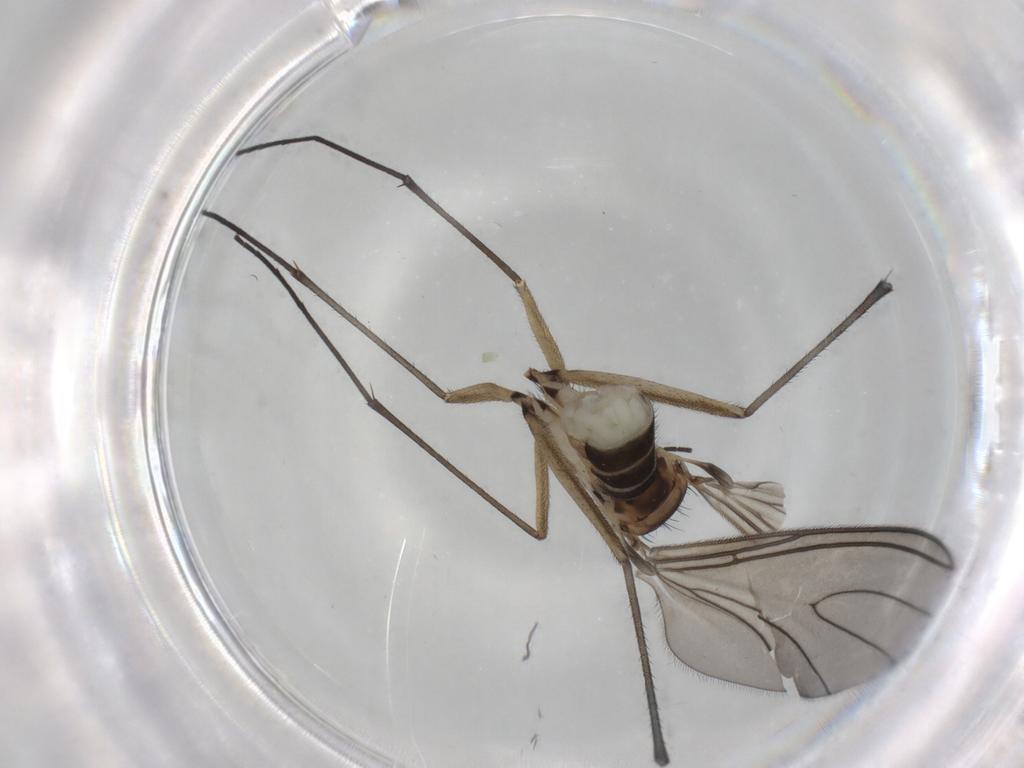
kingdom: Animalia
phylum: Arthropoda
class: Insecta
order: Diptera
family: Sciaridae
